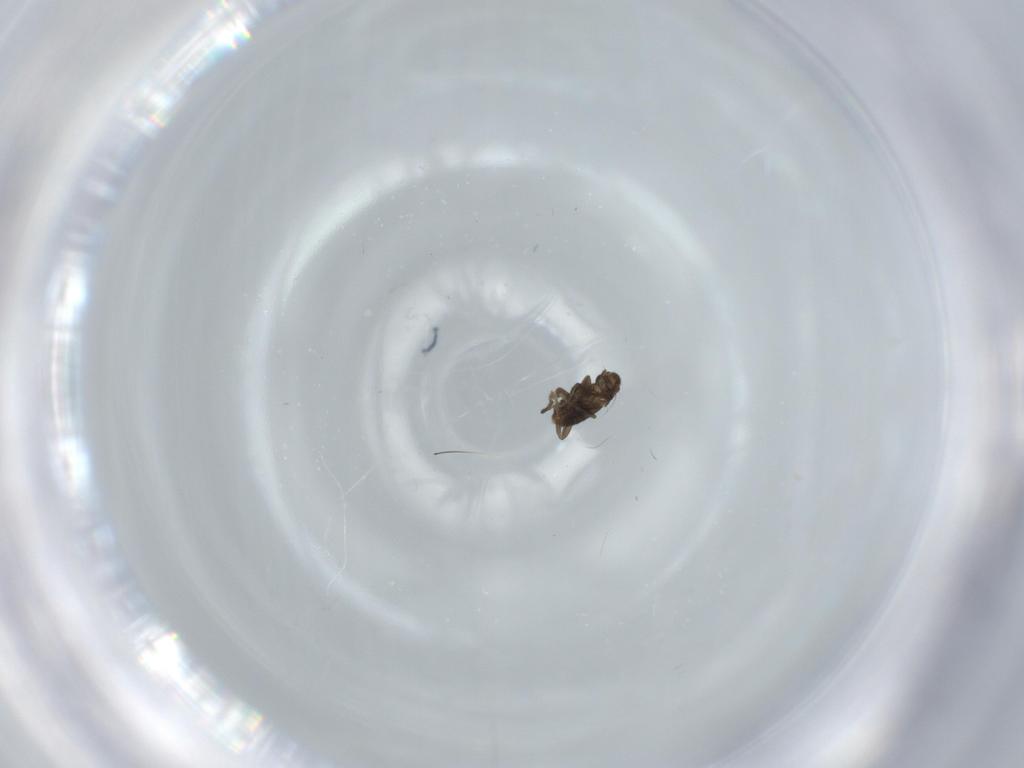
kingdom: Animalia
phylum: Arthropoda
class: Insecta
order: Diptera
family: Phoridae
